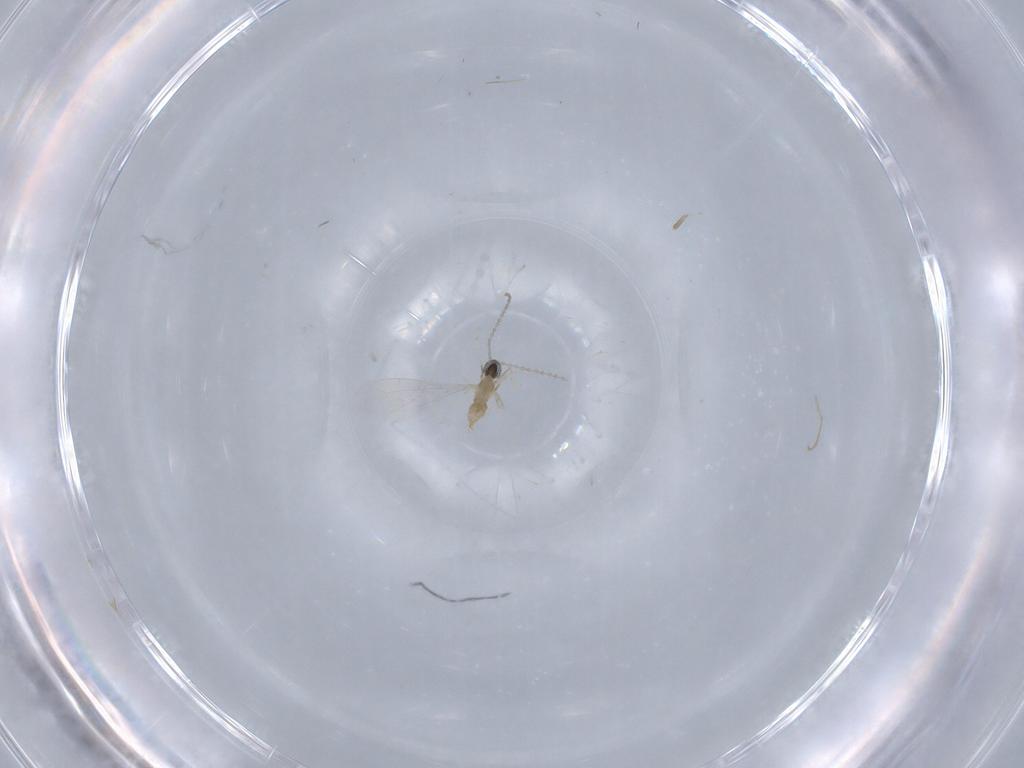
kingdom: Animalia
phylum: Arthropoda
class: Insecta
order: Diptera
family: Cecidomyiidae
